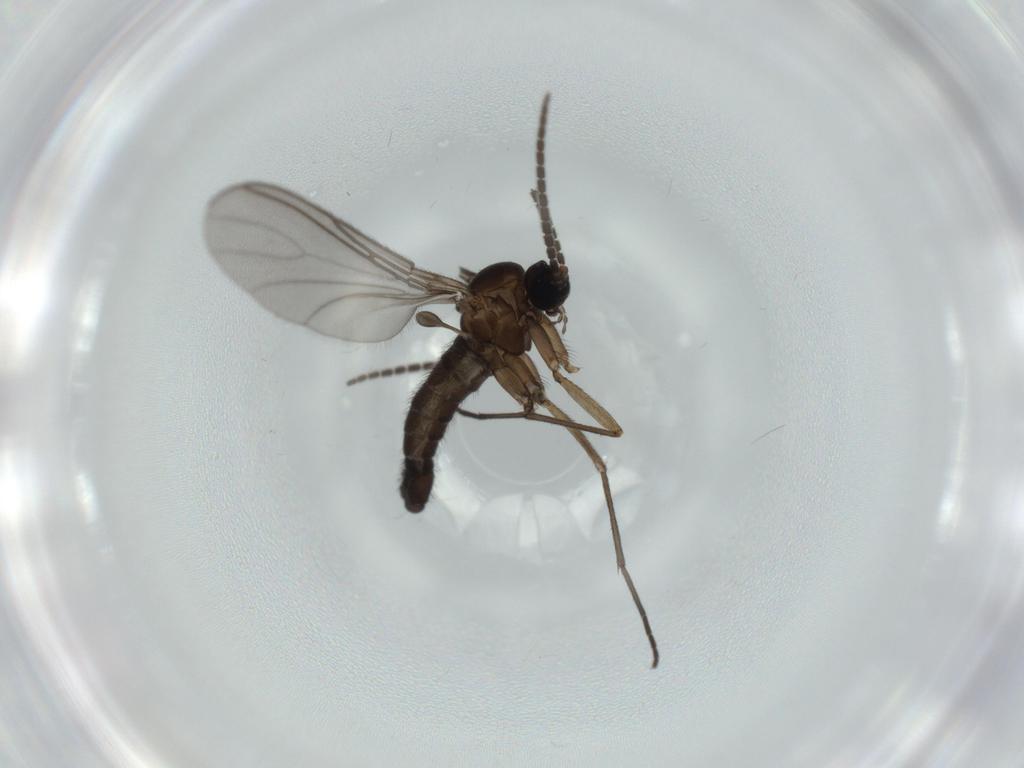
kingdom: Animalia
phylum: Arthropoda
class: Insecta
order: Diptera
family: Sciaridae
